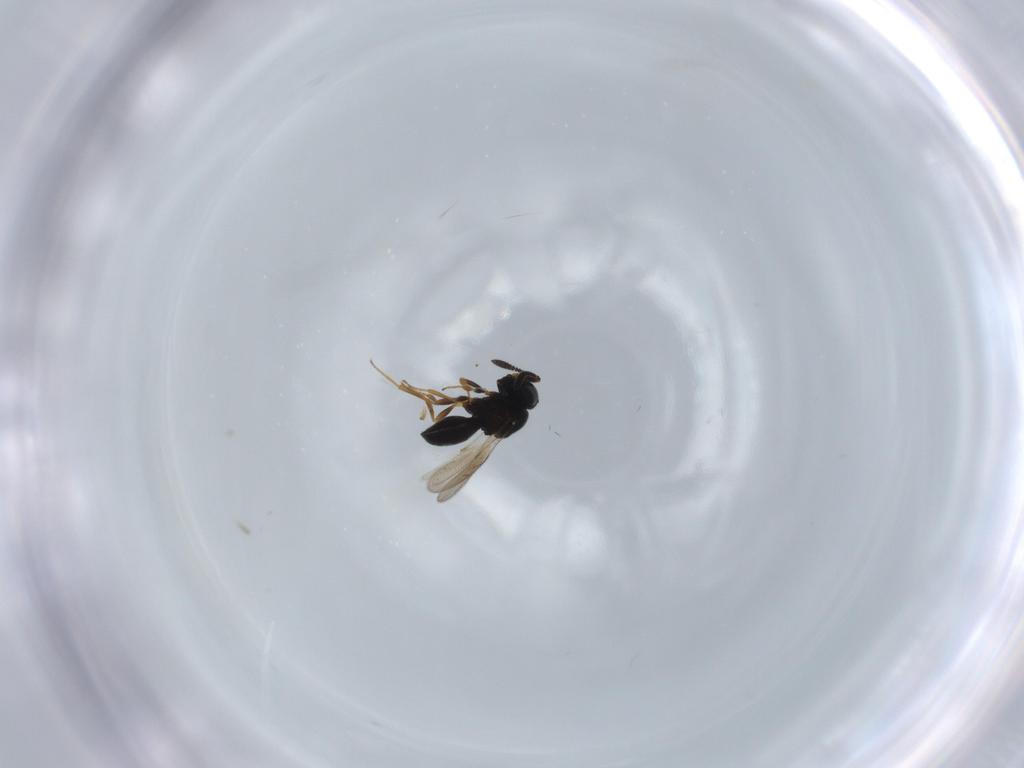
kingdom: Animalia
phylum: Arthropoda
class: Insecta
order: Hymenoptera
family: Scelionidae
